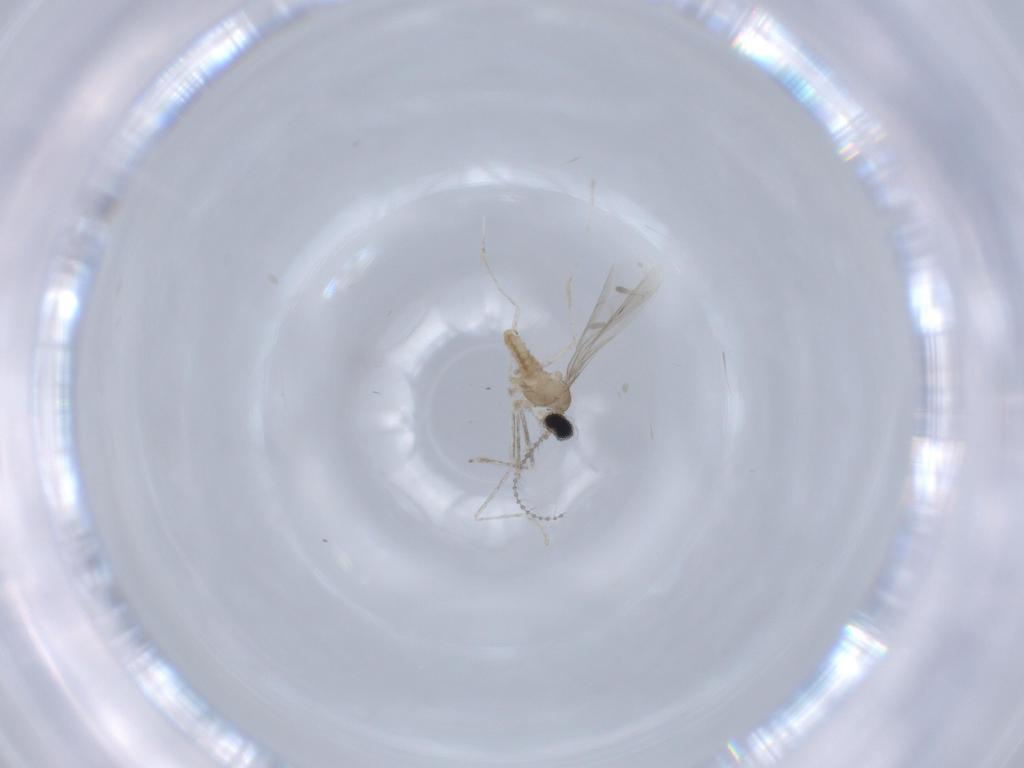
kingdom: Animalia
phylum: Arthropoda
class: Insecta
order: Diptera
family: Cecidomyiidae
